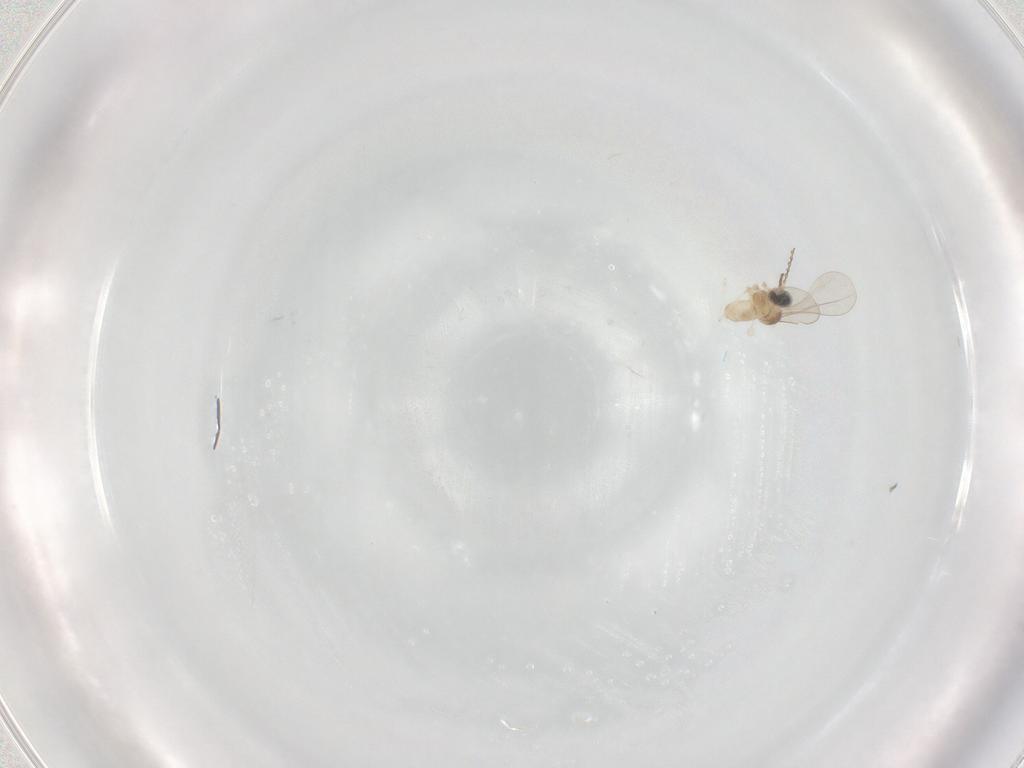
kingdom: Animalia
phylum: Arthropoda
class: Insecta
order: Diptera
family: Cecidomyiidae
